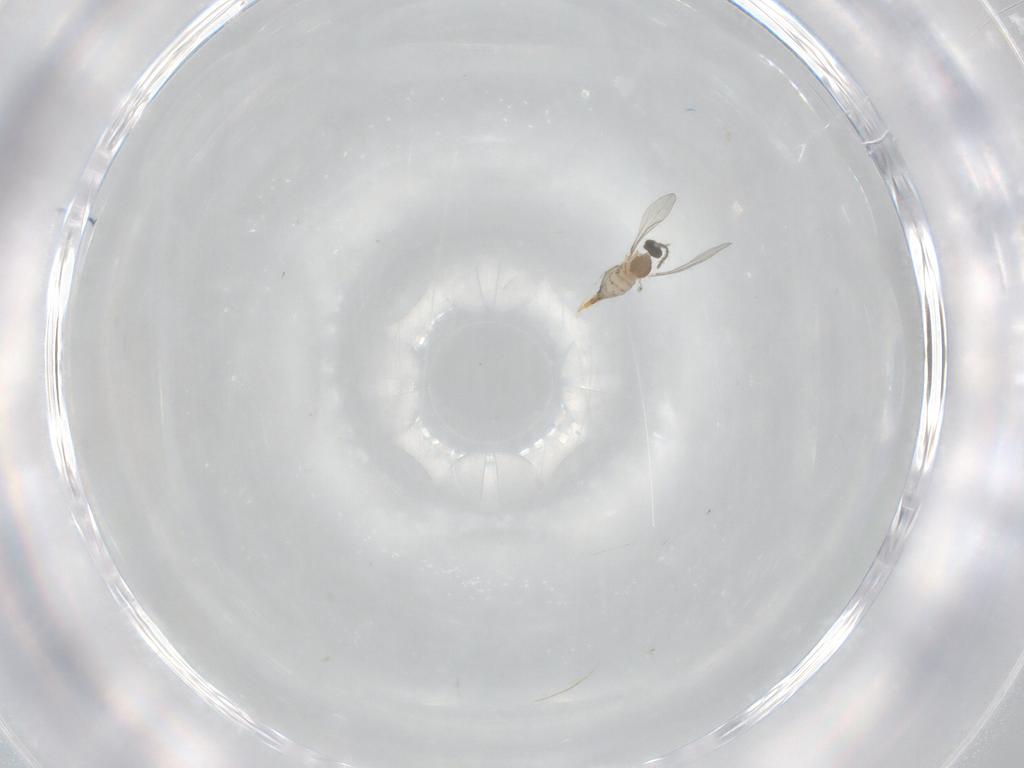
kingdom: Animalia
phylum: Arthropoda
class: Insecta
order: Diptera
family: Cecidomyiidae
